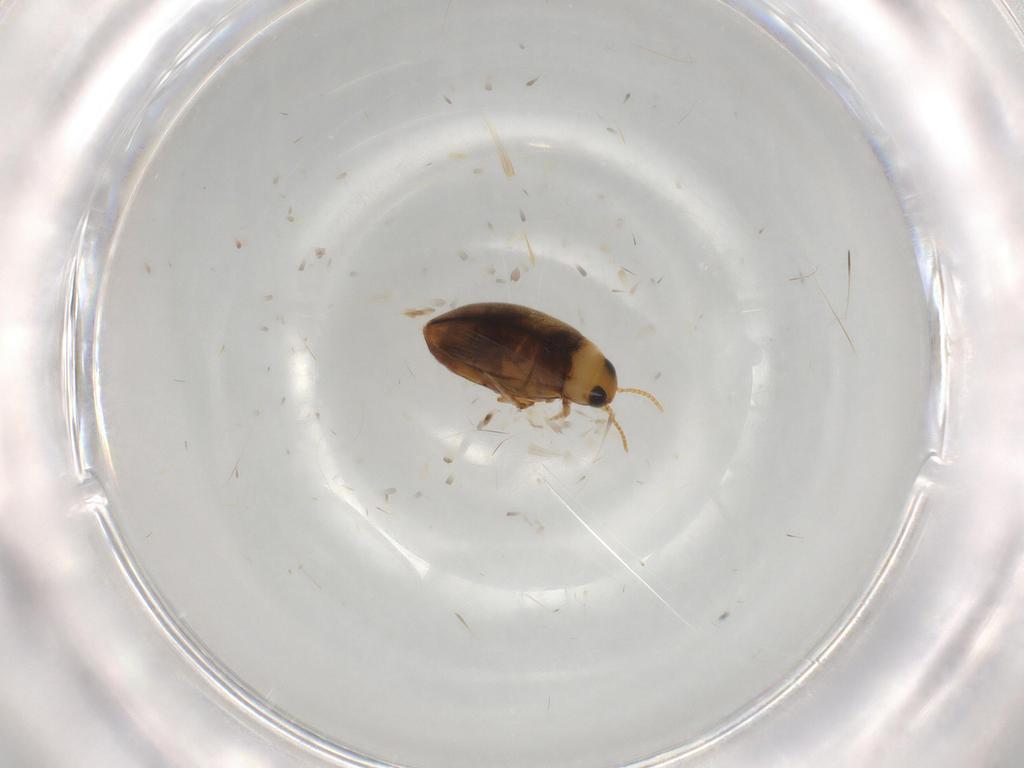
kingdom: Animalia
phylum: Arthropoda
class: Insecta
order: Coleoptera
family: Dytiscidae
